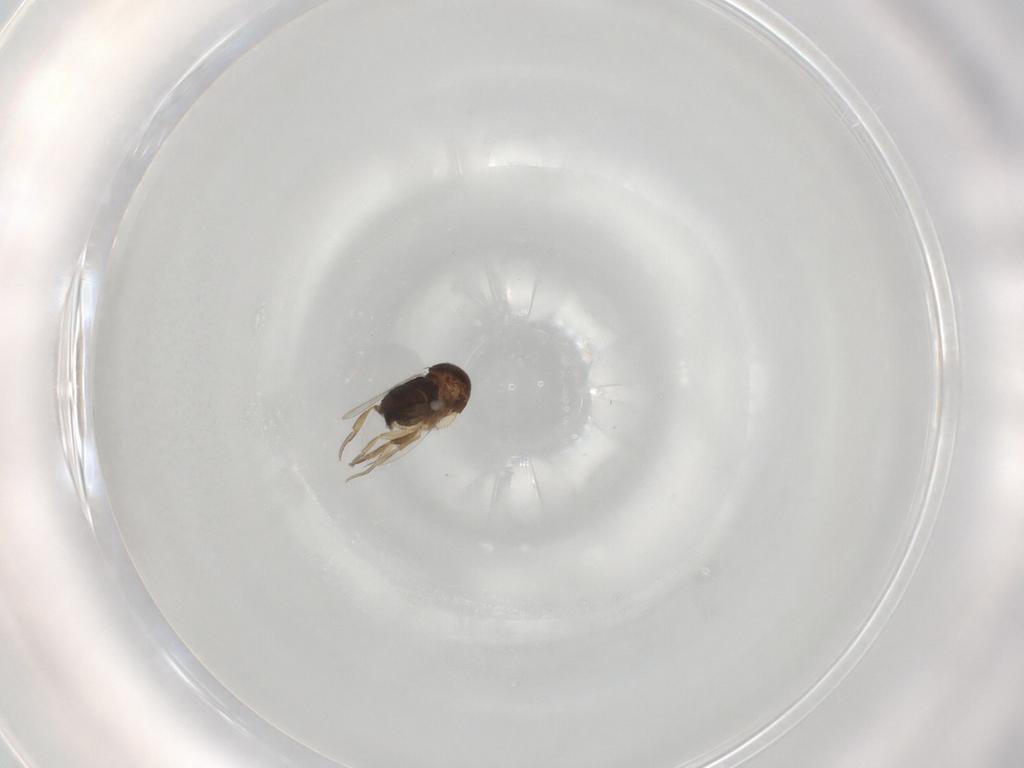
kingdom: Animalia
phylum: Arthropoda
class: Insecta
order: Diptera
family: Phoridae
